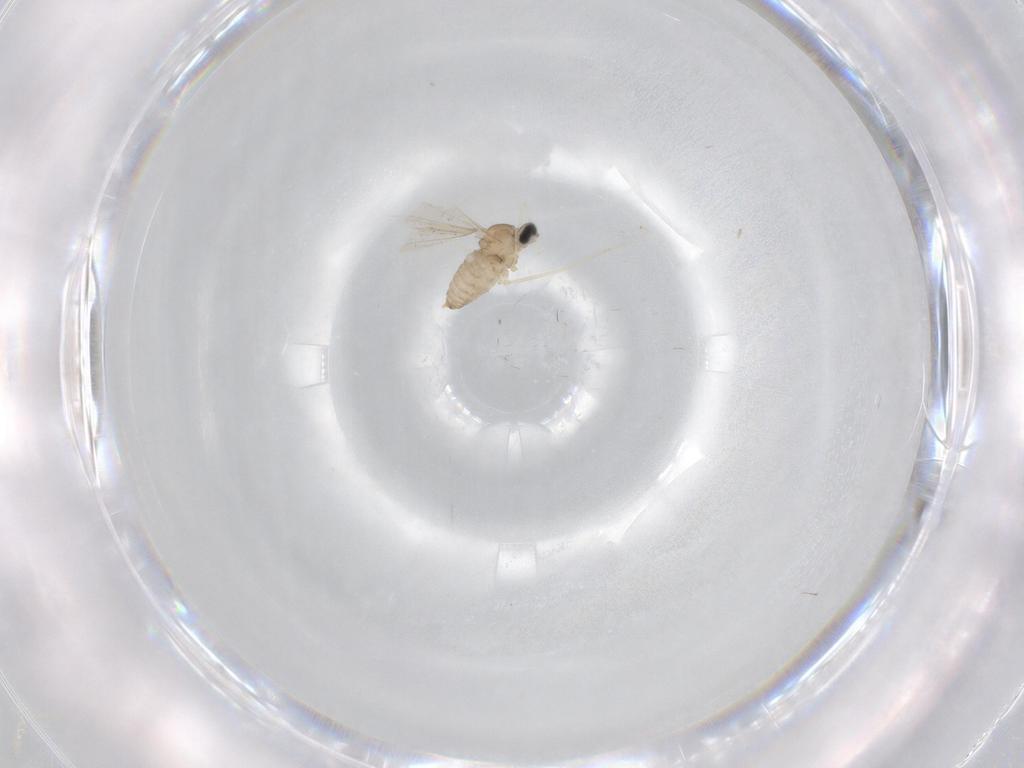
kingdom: Animalia
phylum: Arthropoda
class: Insecta
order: Diptera
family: Cecidomyiidae
